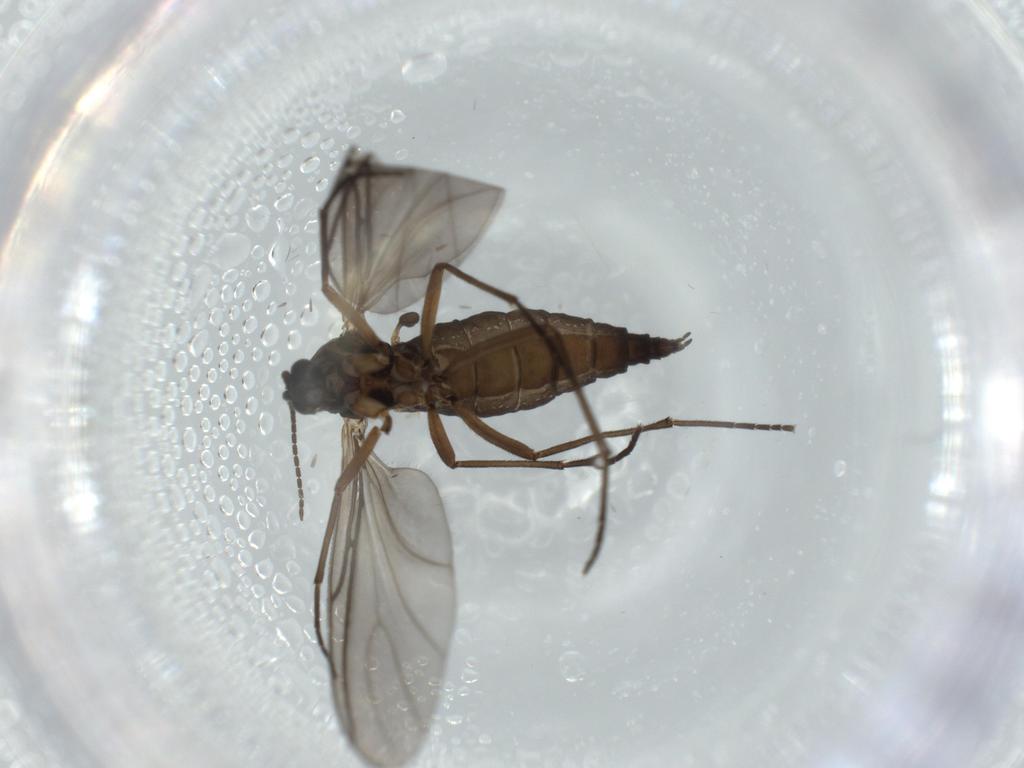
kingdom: Animalia
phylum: Arthropoda
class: Insecta
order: Diptera
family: Sciaridae
